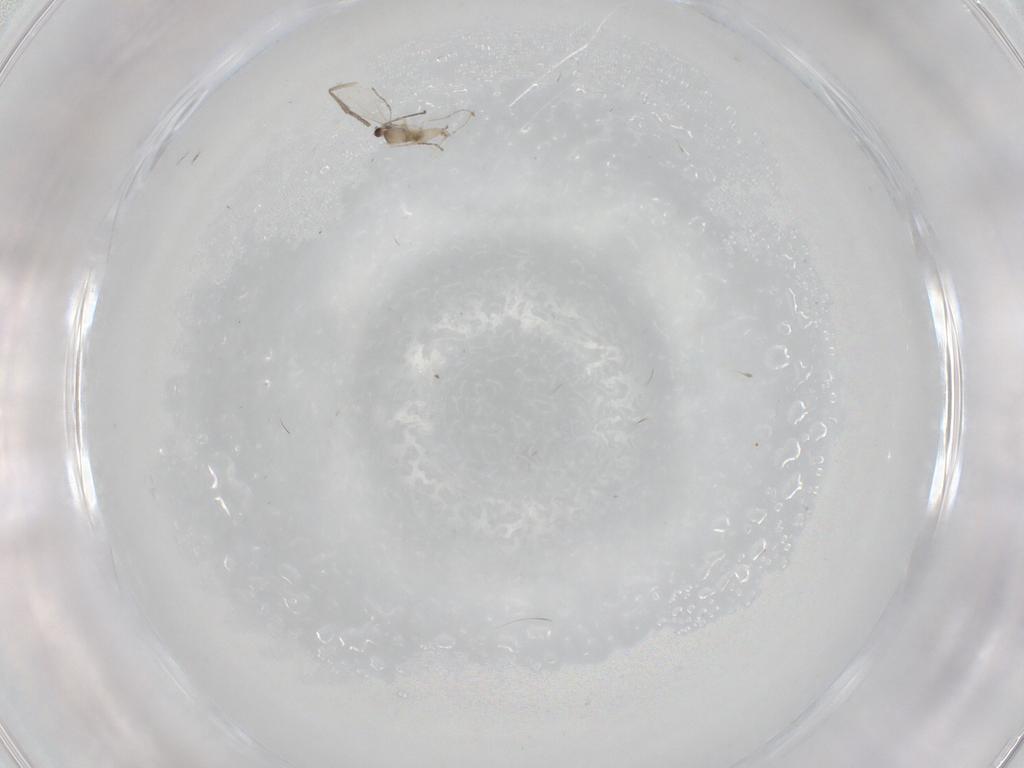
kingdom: Animalia
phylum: Arthropoda
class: Insecta
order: Diptera
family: Cecidomyiidae
